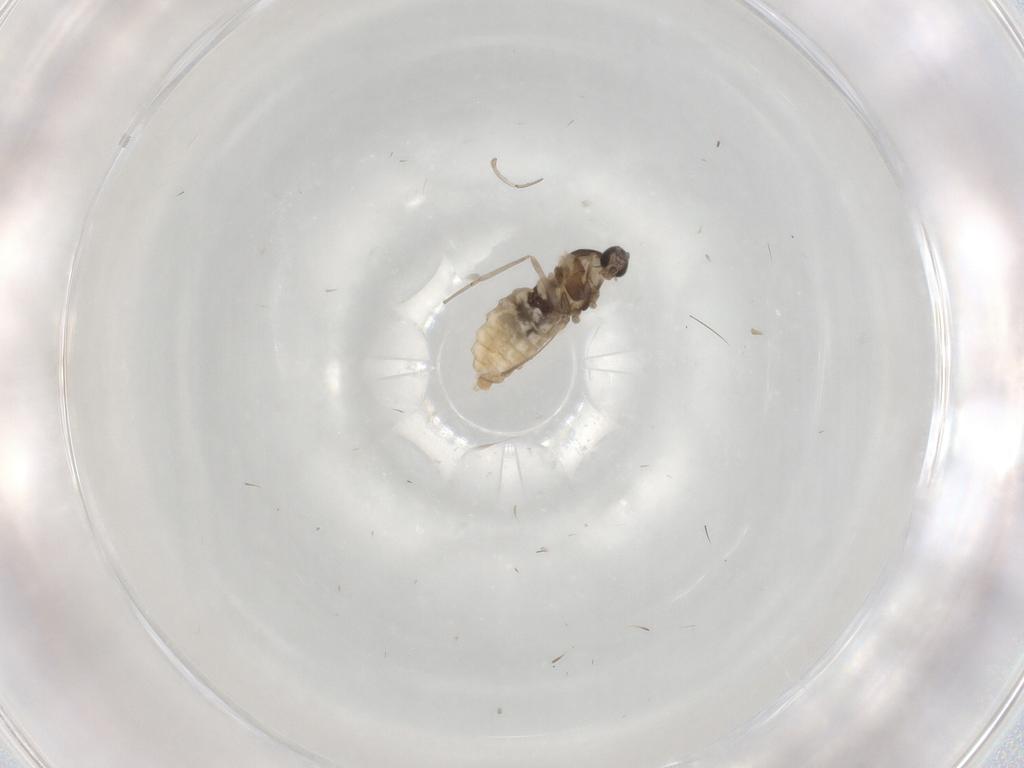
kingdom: Animalia
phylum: Arthropoda
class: Insecta
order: Diptera
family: Cecidomyiidae
